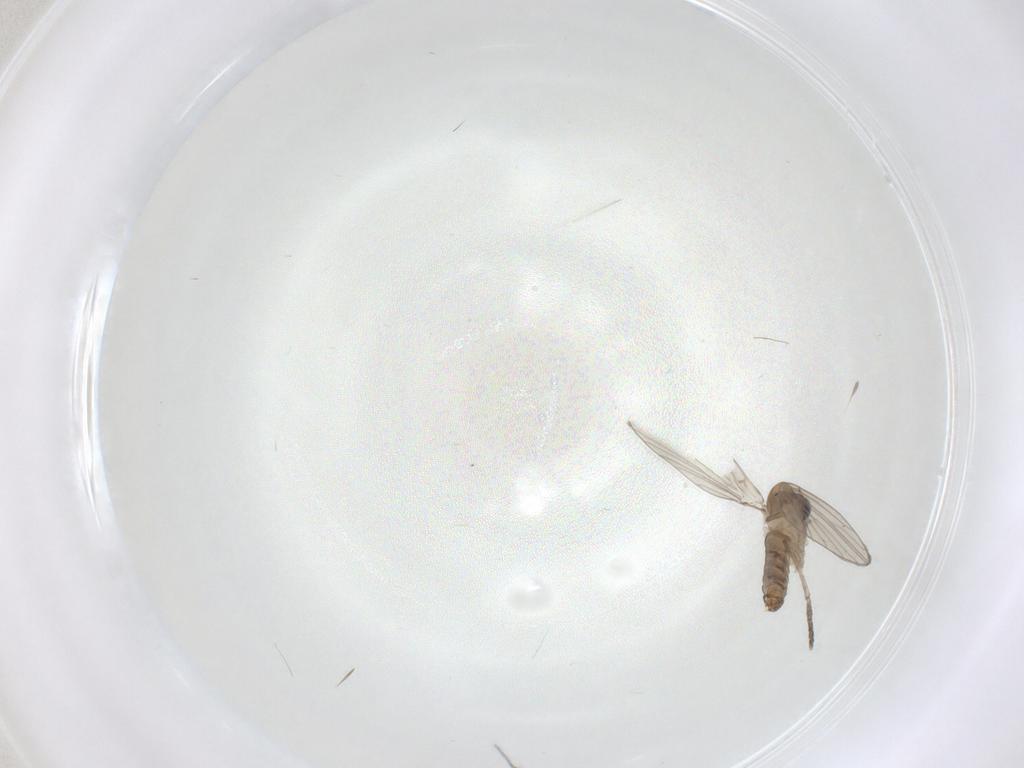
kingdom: Animalia
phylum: Arthropoda
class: Insecta
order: Diptera
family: Psychodidae
